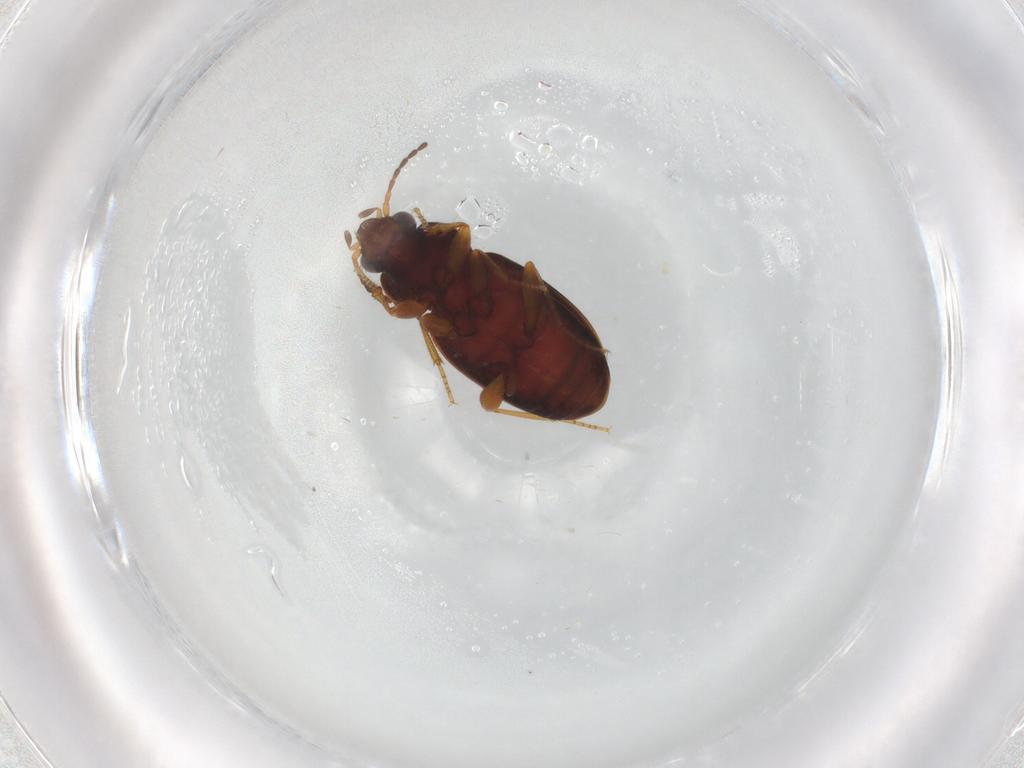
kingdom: Animalia
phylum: Arthropoda
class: Insecta
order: Coleoptera
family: Carabidae
